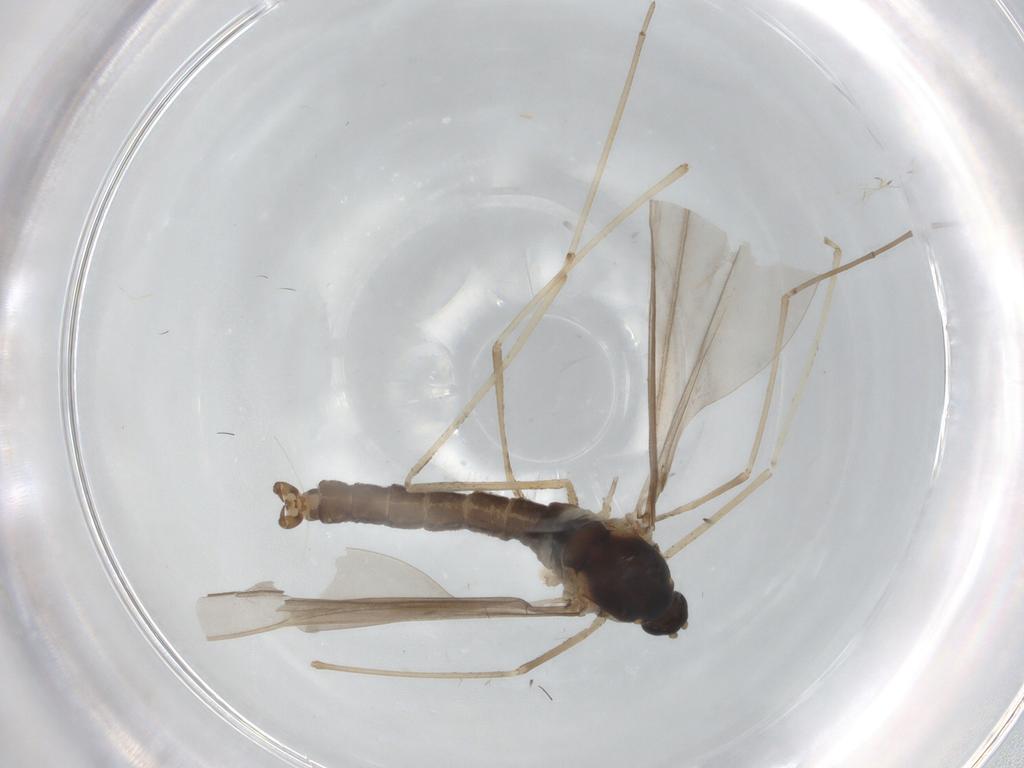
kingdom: Animalia
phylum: Arthropoda
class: Insecta
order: Diptera
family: Cecidomyiidae
